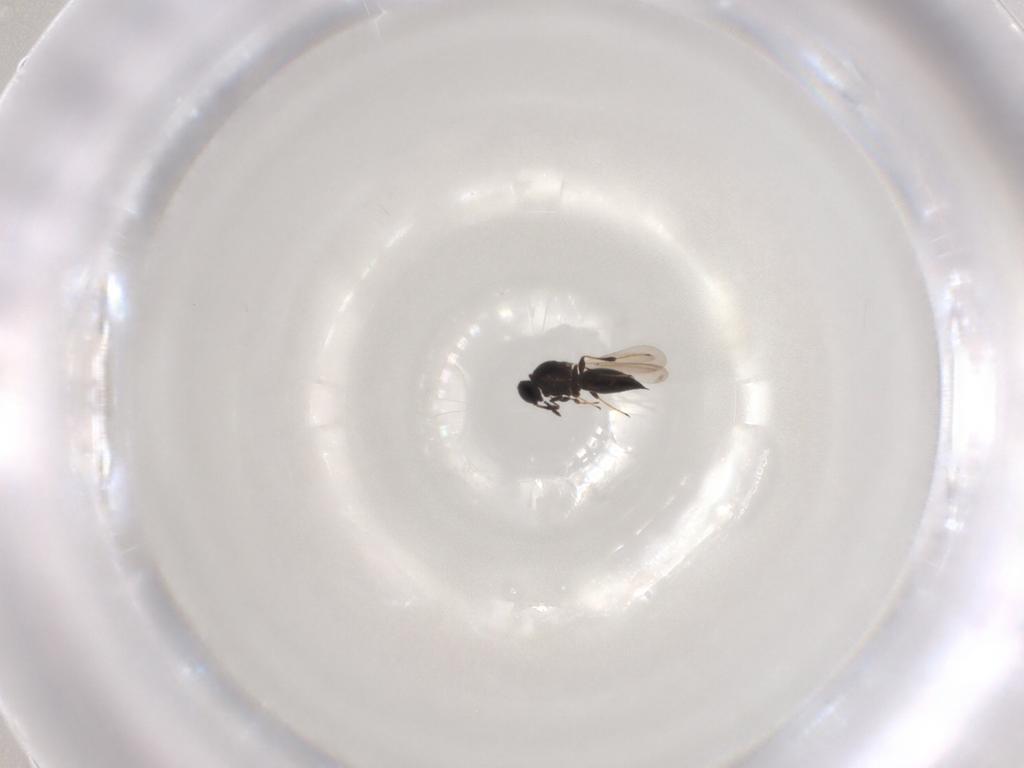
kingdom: Animalia
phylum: Arthropoda
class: Insecta
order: Hymenoptera
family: Platygastridae
